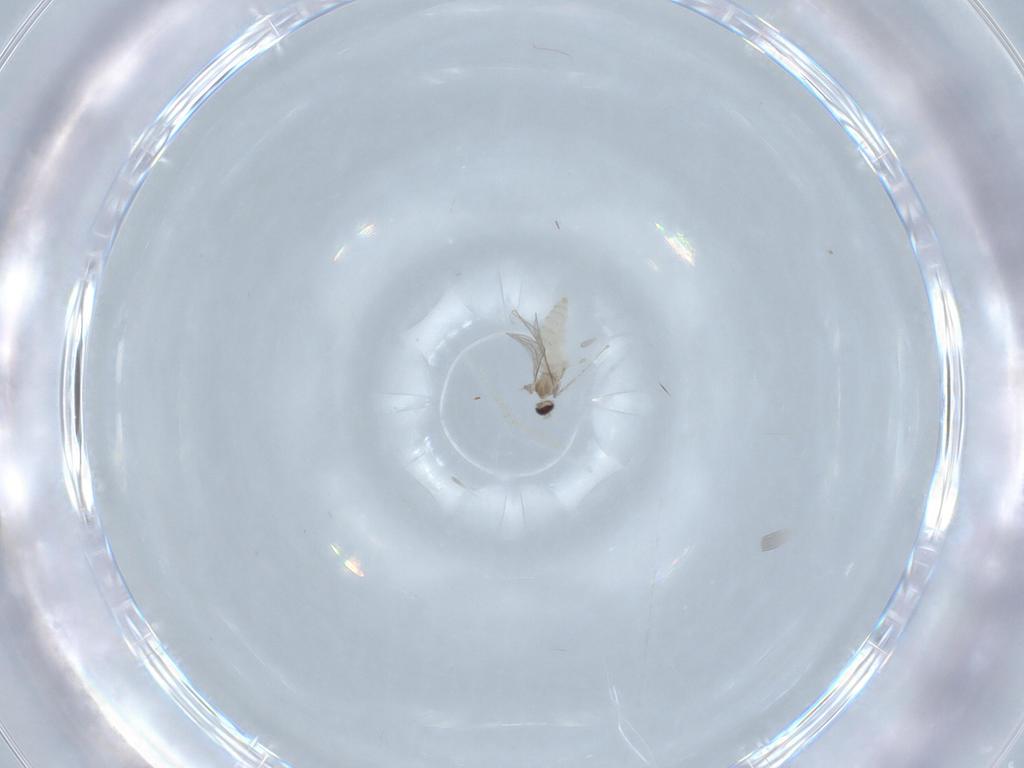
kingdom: Animalia
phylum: Arthropoda
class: Insecta
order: Diptera
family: Cecidomyiidae
